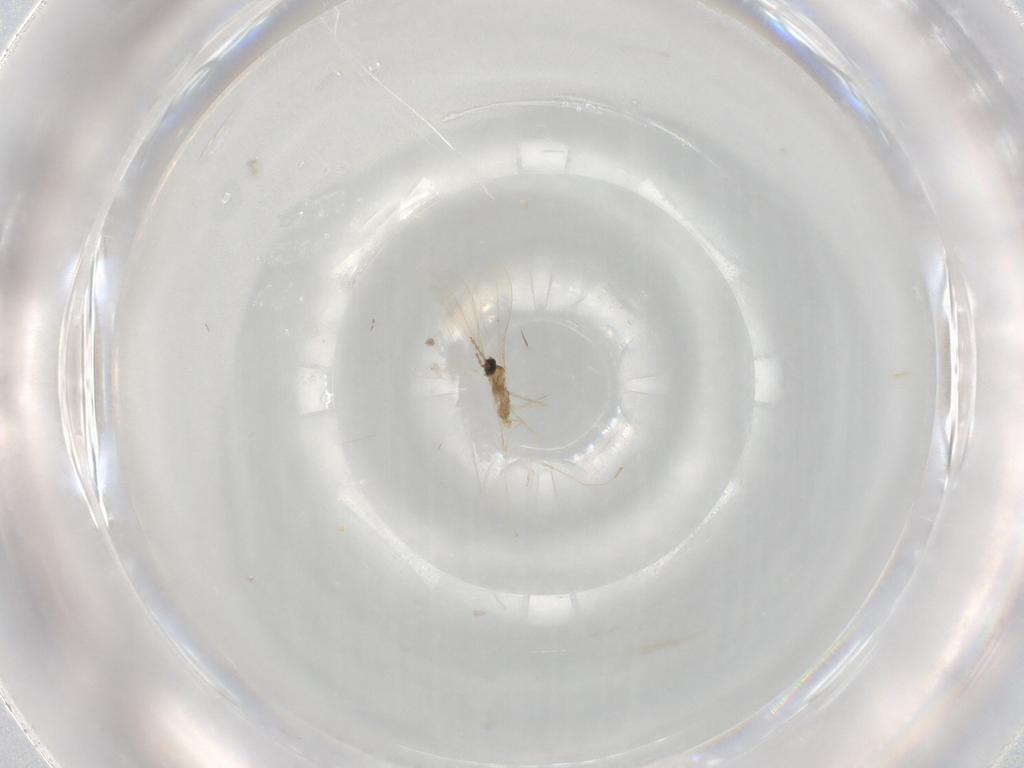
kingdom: Animalia
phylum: Arthropoda
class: Insecta
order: Diptera
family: Cecidomyiidae
